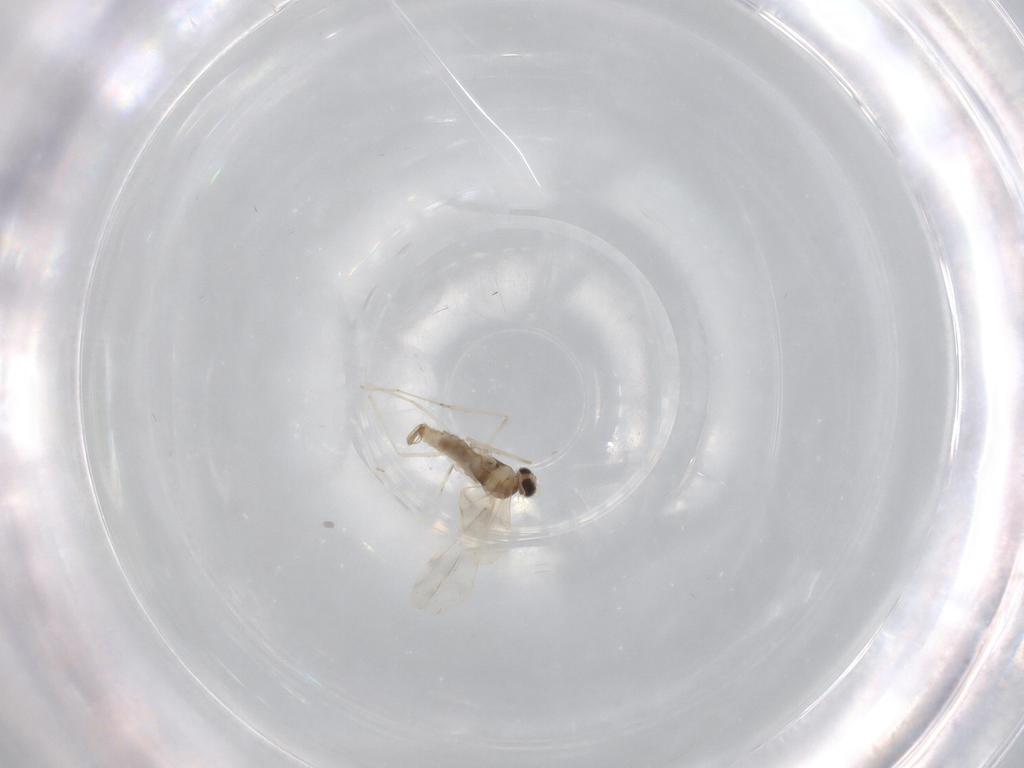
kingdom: Animalia
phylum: Arthropoda
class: Insecta
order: Diptera
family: Cecidomyiidae
